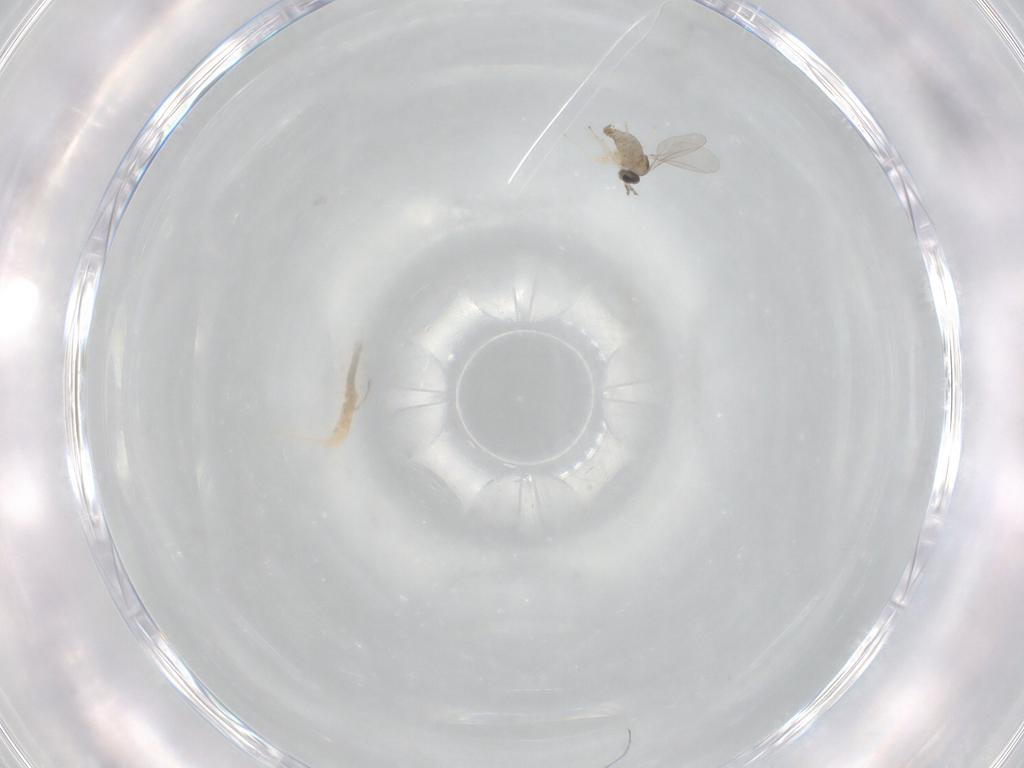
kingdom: Animalia
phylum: Arthropoda
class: Insecta
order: Diptera
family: Cecidomyiidae
